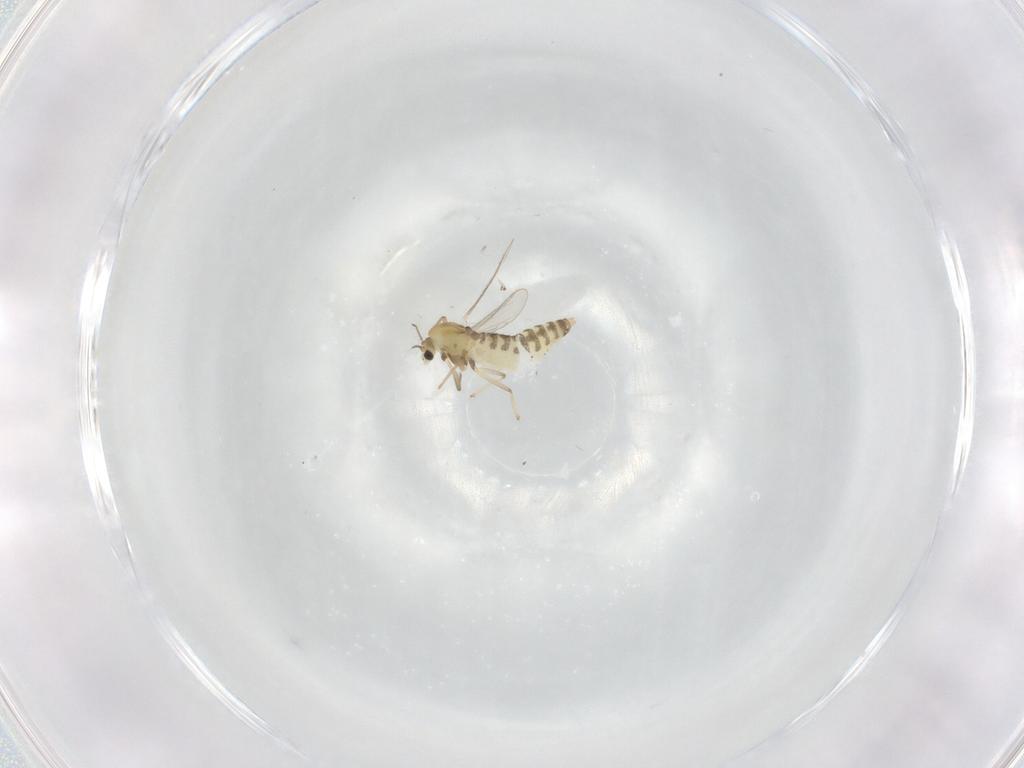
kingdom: Animalia
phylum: Arthropoda
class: Insecta
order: Diptera
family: Chironomidae
